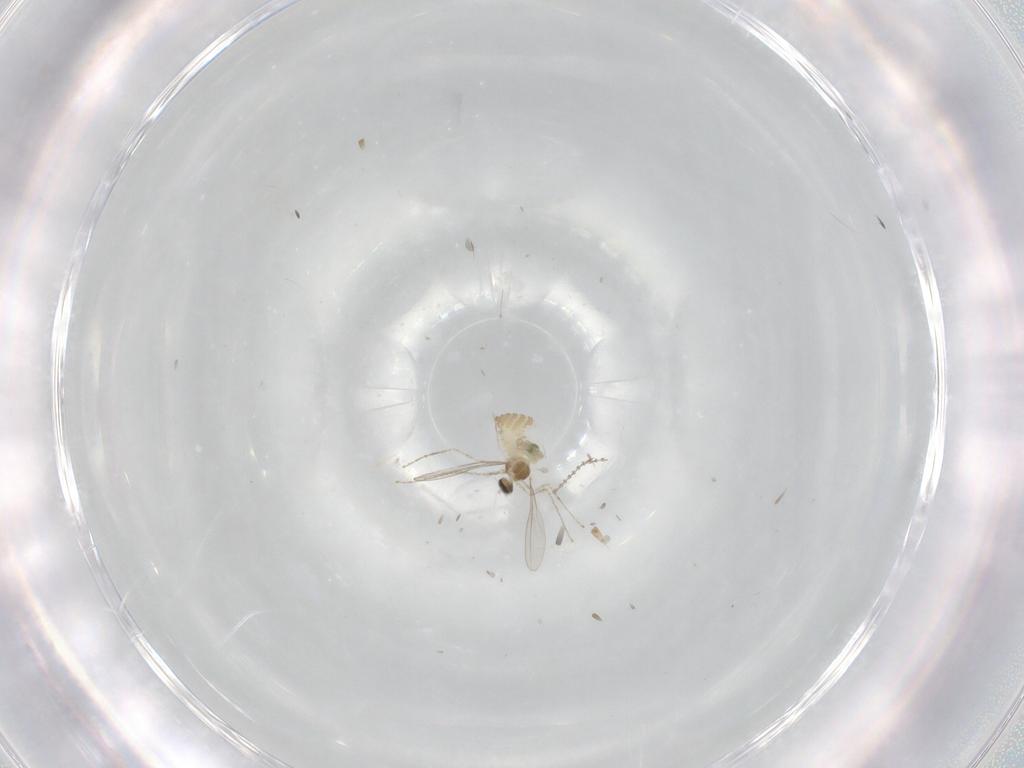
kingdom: Animalia
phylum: Arthropoda
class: Insecta
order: Diptera
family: Cecidomyiidae
